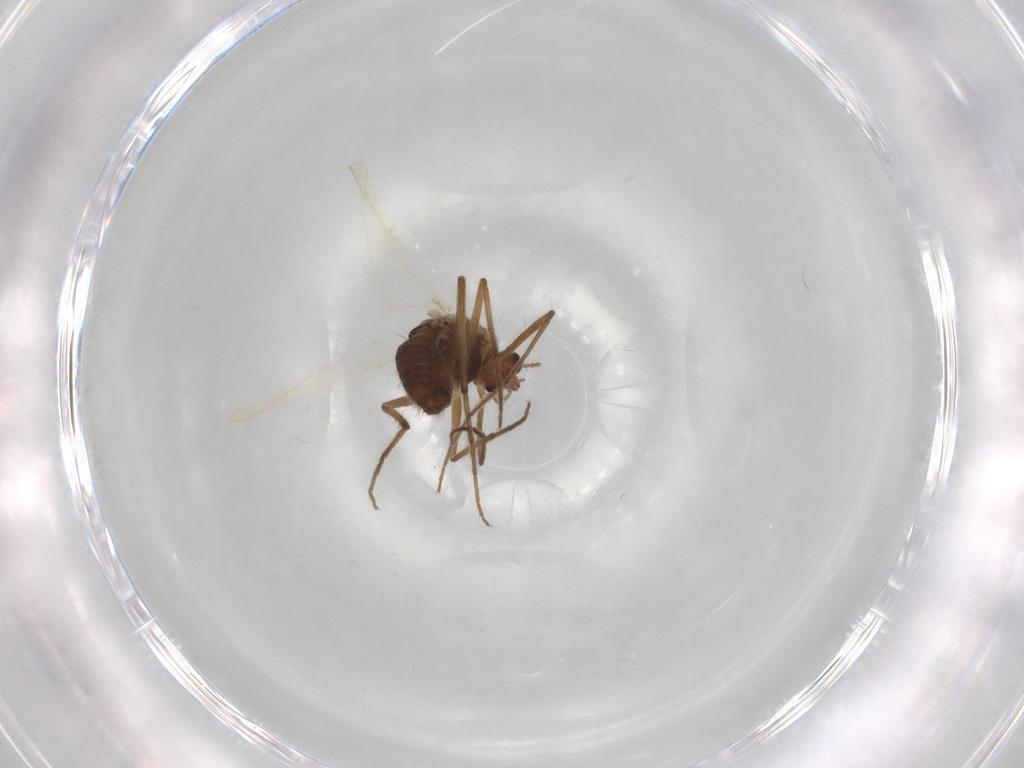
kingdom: Animalia
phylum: Arthropoda
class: Insecta
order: Diptera
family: Chironomidae
